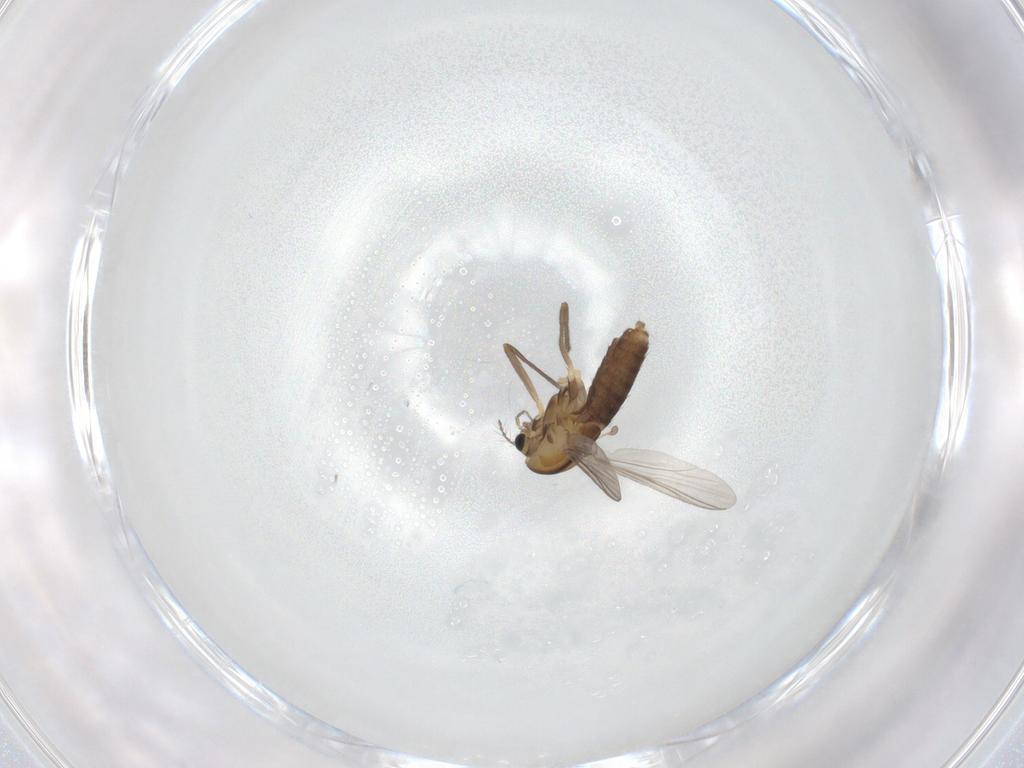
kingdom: Animalia
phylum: Arthropoda
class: Insecta
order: Diptera
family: Chironomidae
